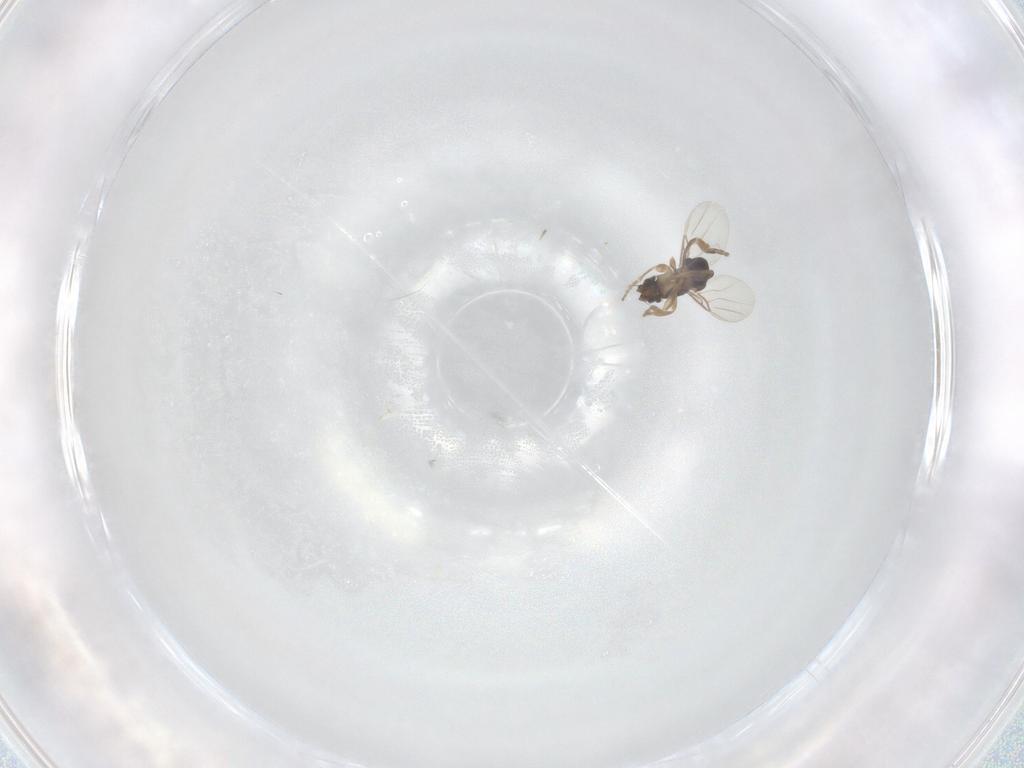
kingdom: Animalia
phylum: Arthropoda
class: Insecta
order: Diptera
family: Phoridae
